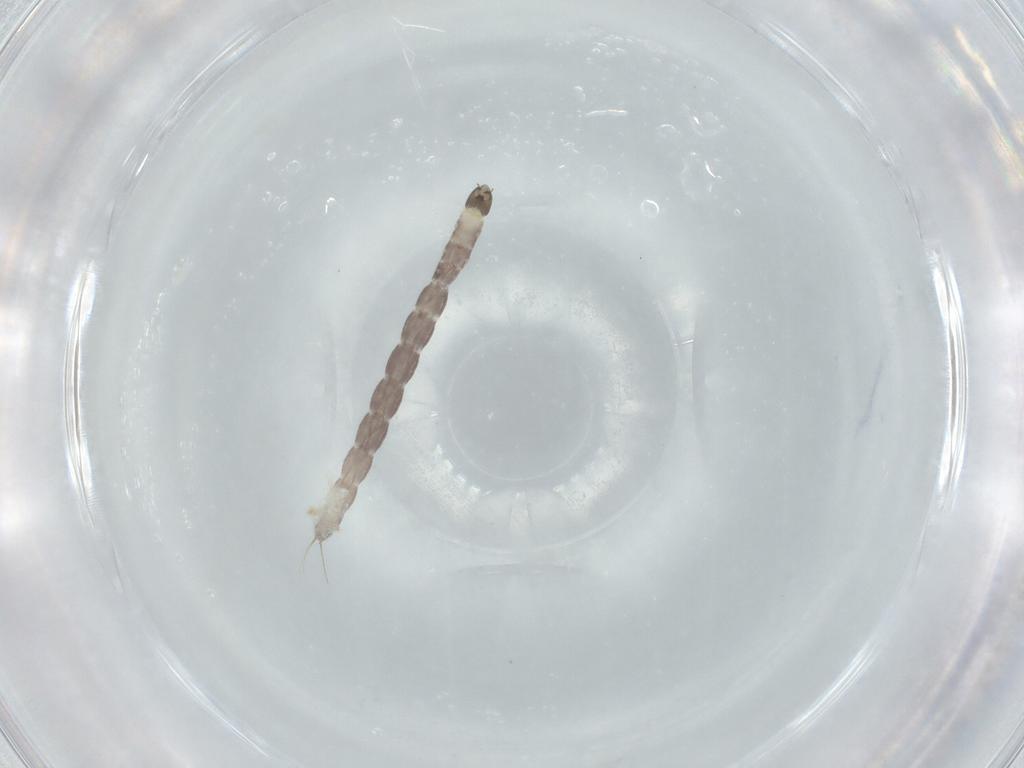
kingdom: Animalia
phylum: Arthropoda
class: Insecta
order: Diptera
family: Chironomidae
